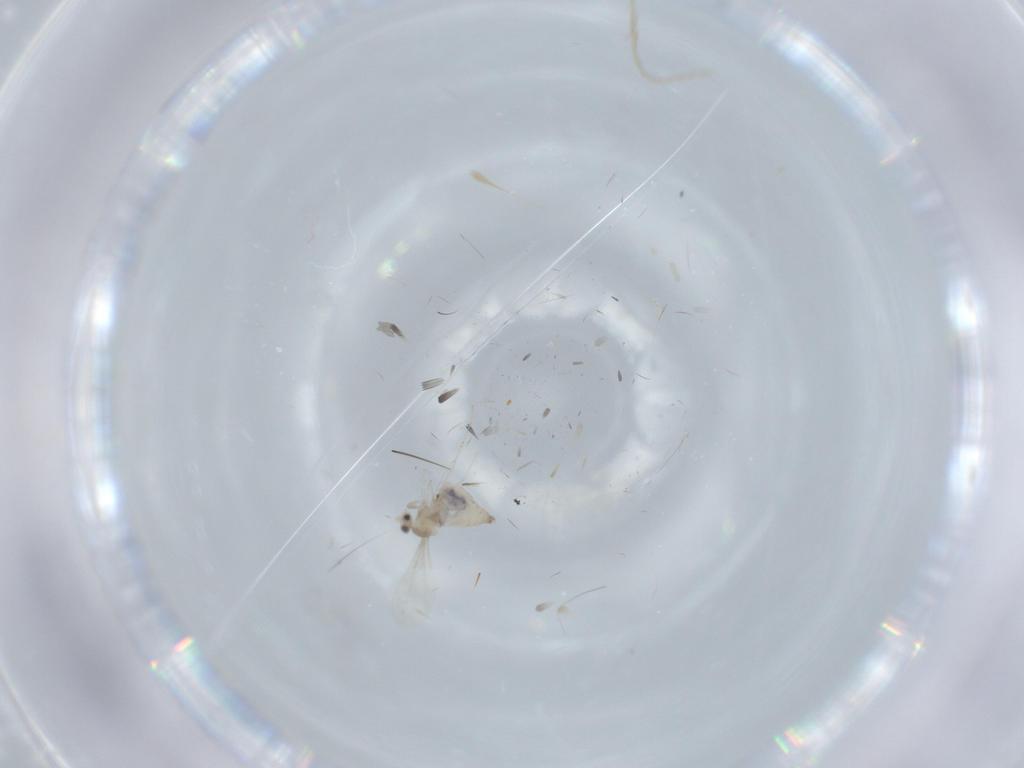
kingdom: Animalia
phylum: Arthropoda
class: Insecta
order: Diptera
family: Cecidomyiidae
